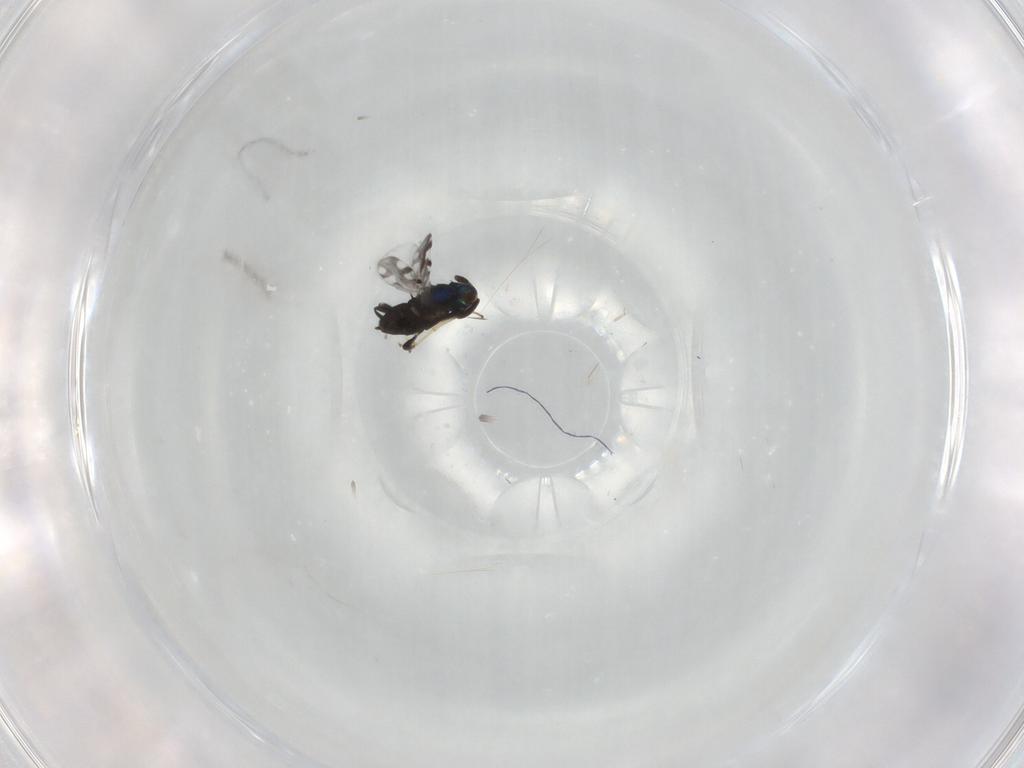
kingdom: Animalia
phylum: Arthropoda
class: Insecta
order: Hymenoptera
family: Encyrtidae
